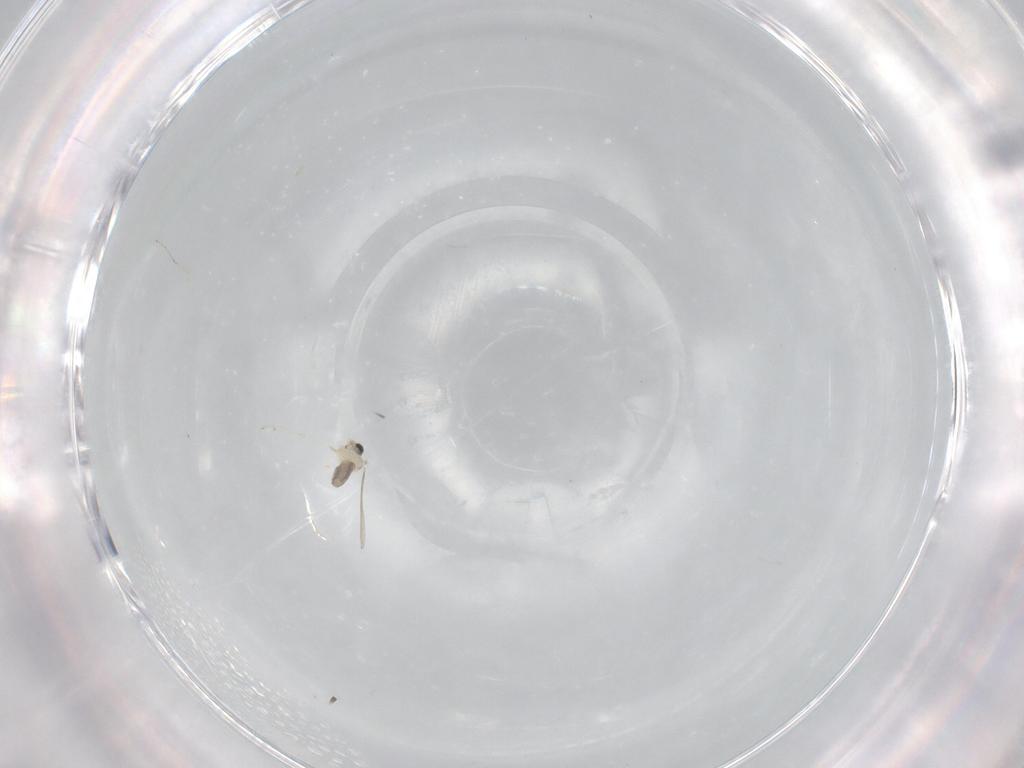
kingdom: Animalia
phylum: Arthropoda
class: Insecta
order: Diptera
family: Cecidomyiidae
